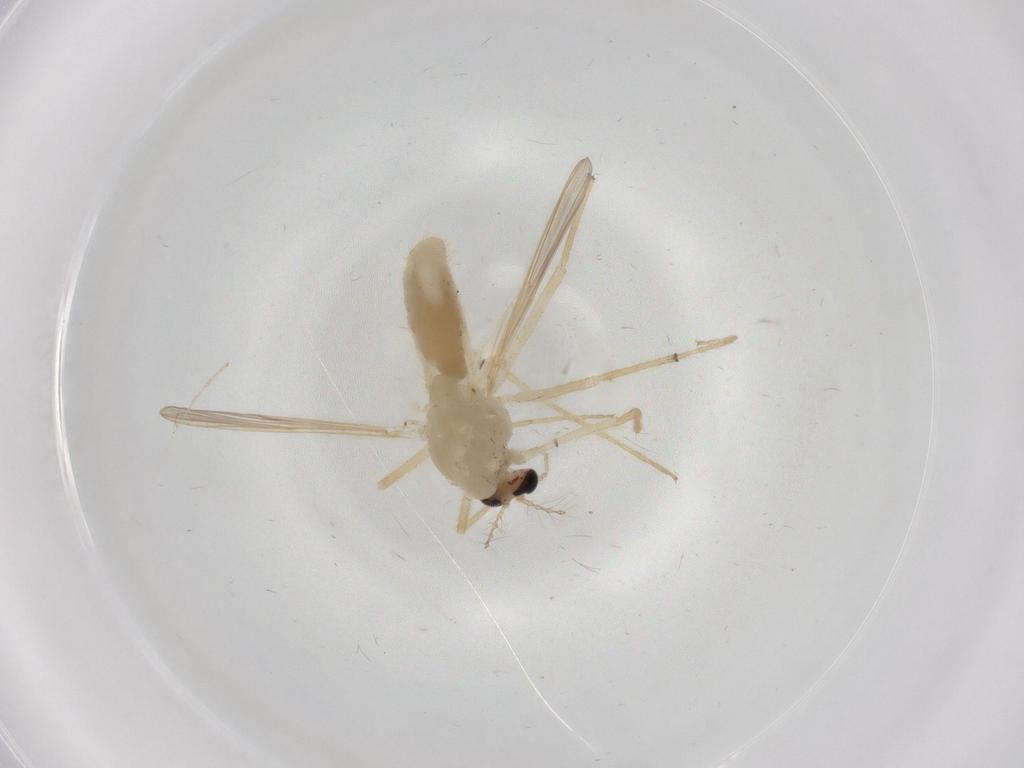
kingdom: Animalia
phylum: Arthropoda
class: Insecta
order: Diptera
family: Chironomidae
